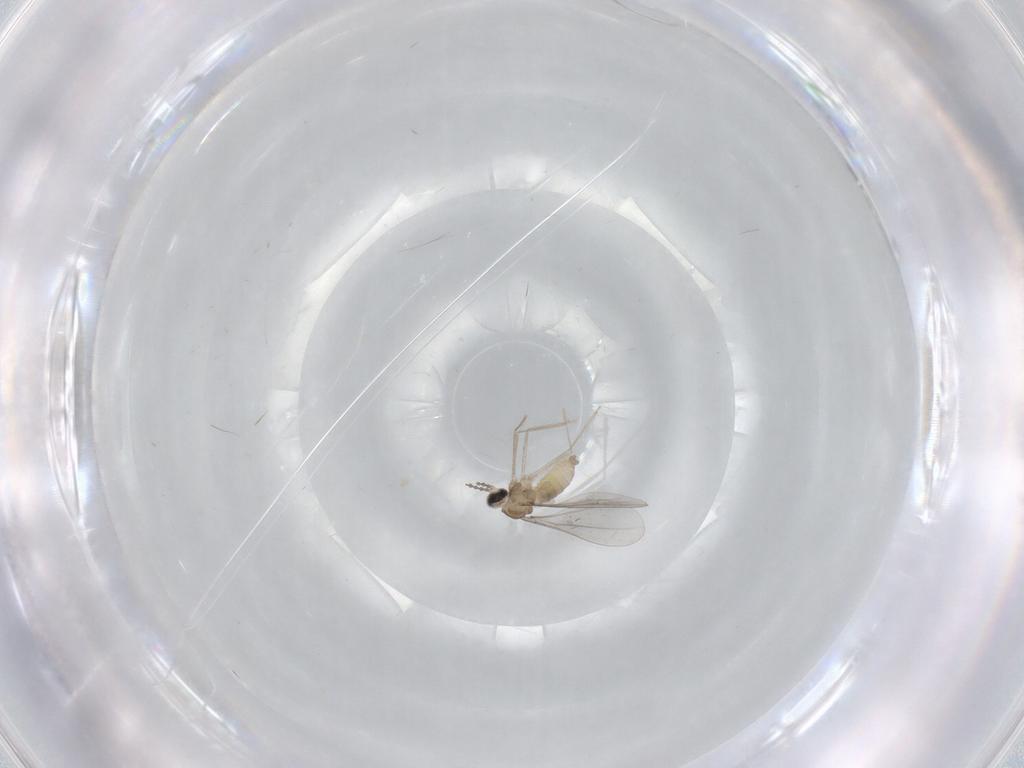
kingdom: Animalia
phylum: Arthropoda
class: Insecta
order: Diptera
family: Cecidomyiidae
